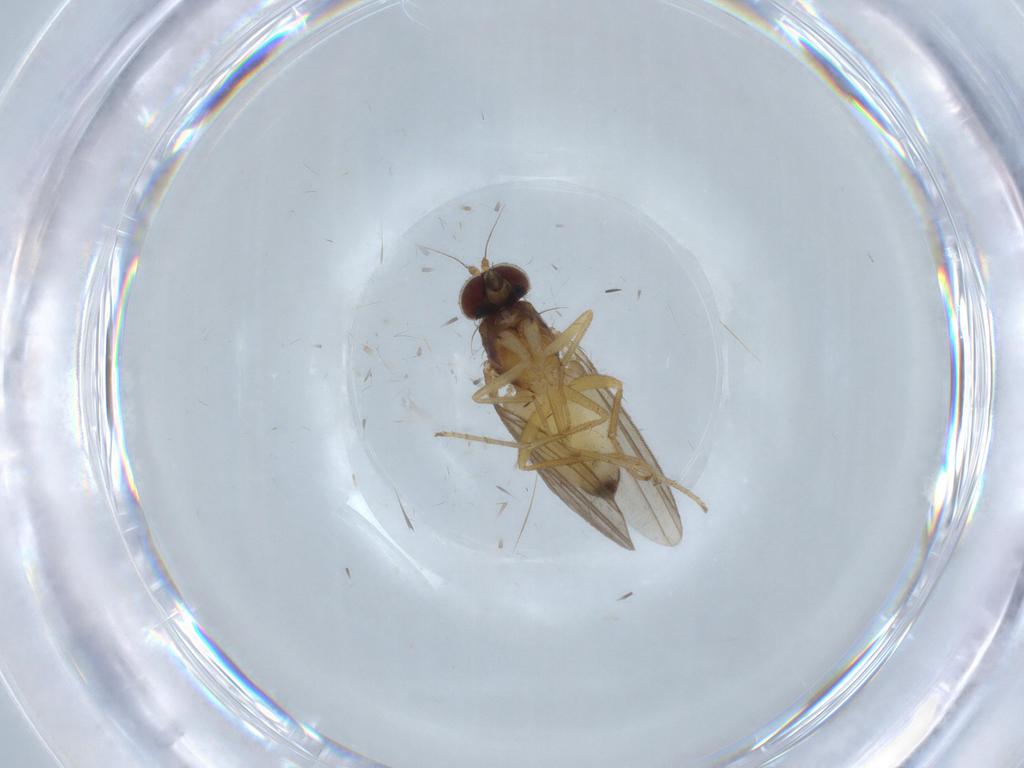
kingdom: Animalia
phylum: Arthropoda
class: Insecta
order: Diptera
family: Dolichopodidae
